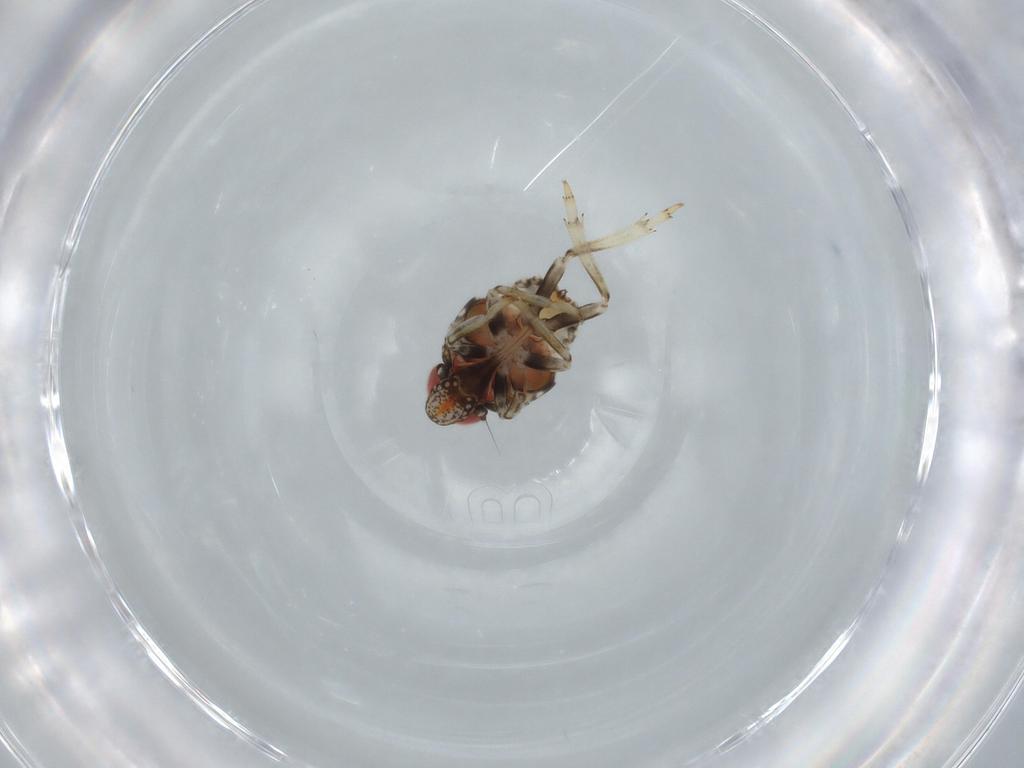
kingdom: Animalia
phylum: Arthropoda
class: Insecta
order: Hemiptera
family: Issidae
